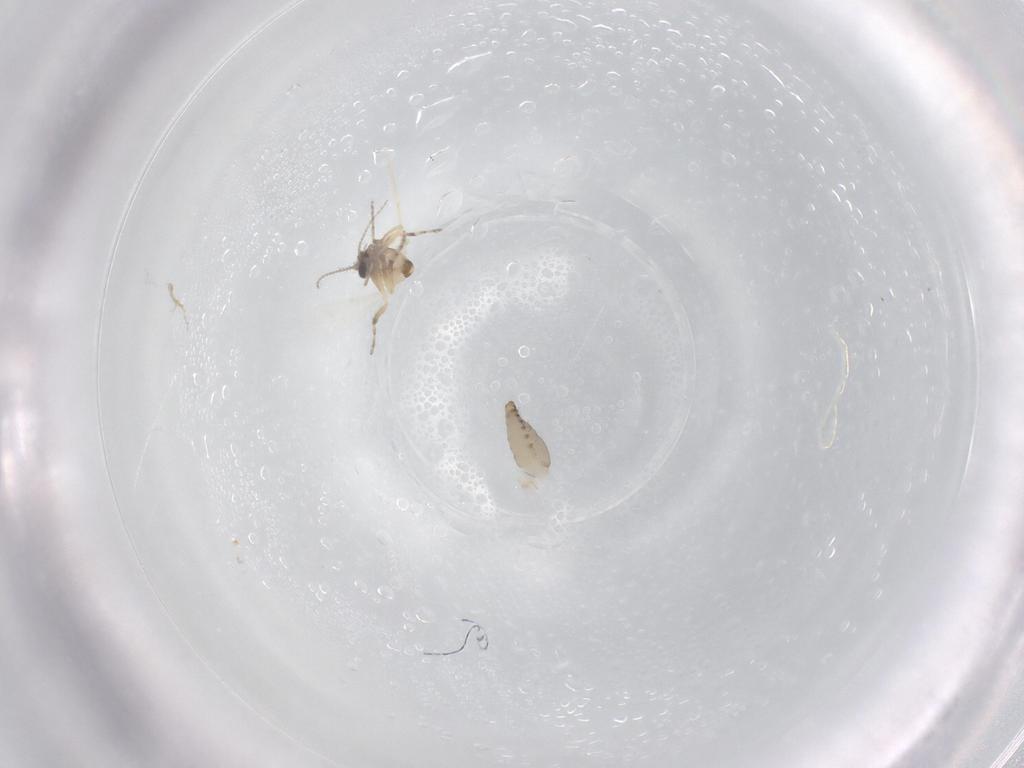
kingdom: Animalia
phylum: Arthropoda
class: Insecta
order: Diptera
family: Ceratopogonidae
